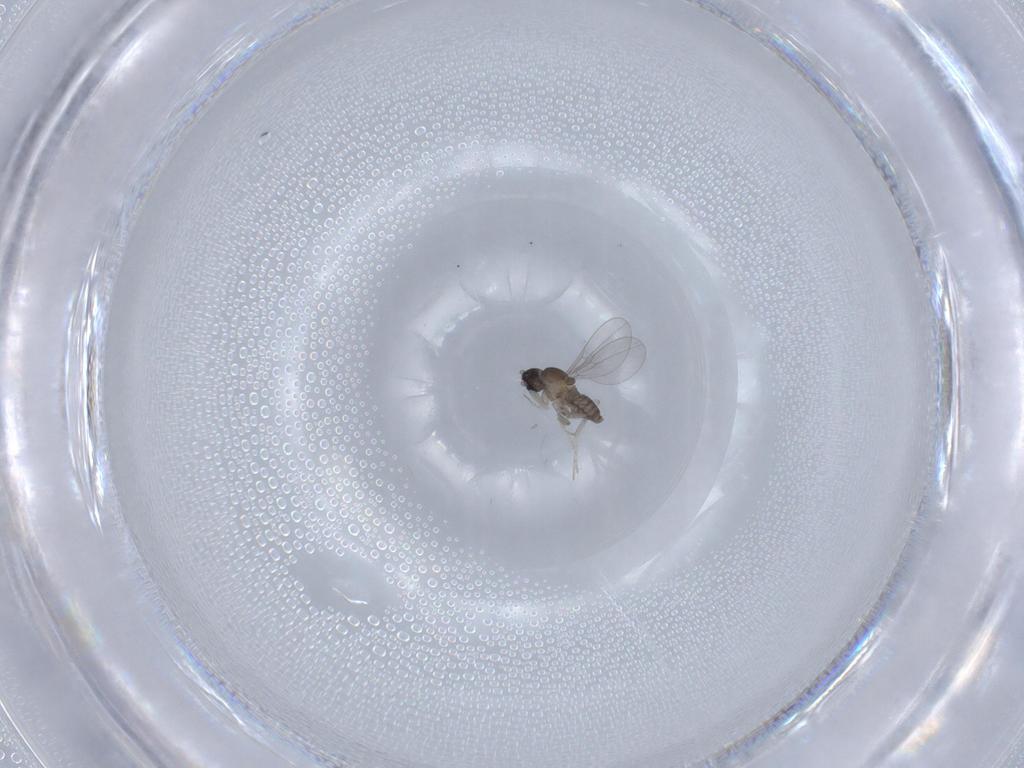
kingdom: Animalia
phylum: Arthropoda
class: Insecta
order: Diptera
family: Cecidomyiidae
